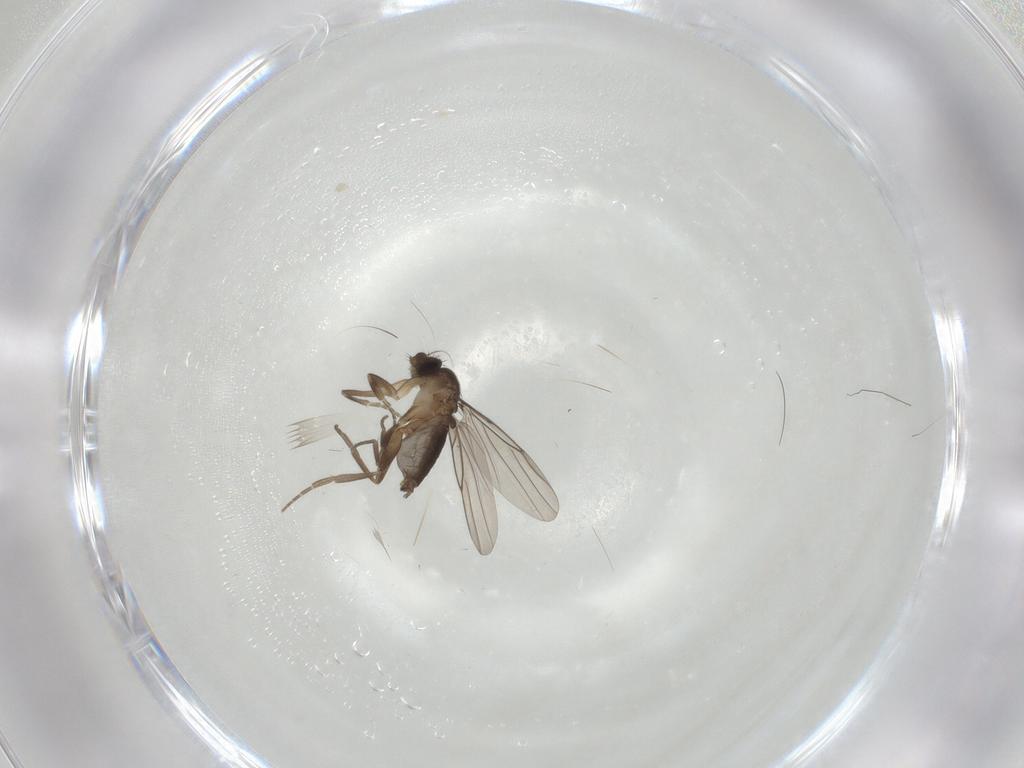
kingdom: Animalia
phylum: Arthropoda
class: Insecta
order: Diptera
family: Phoridae
